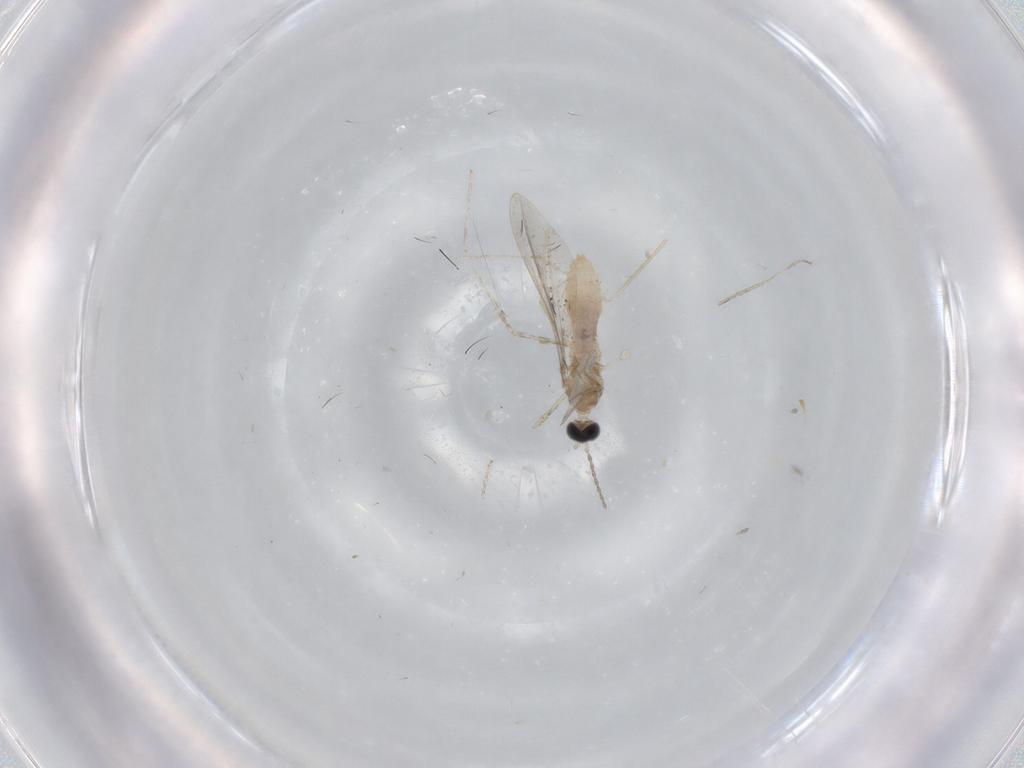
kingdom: Animalia
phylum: Arthropoda
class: Insecta
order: Diptera
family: Cecidomyiidae
